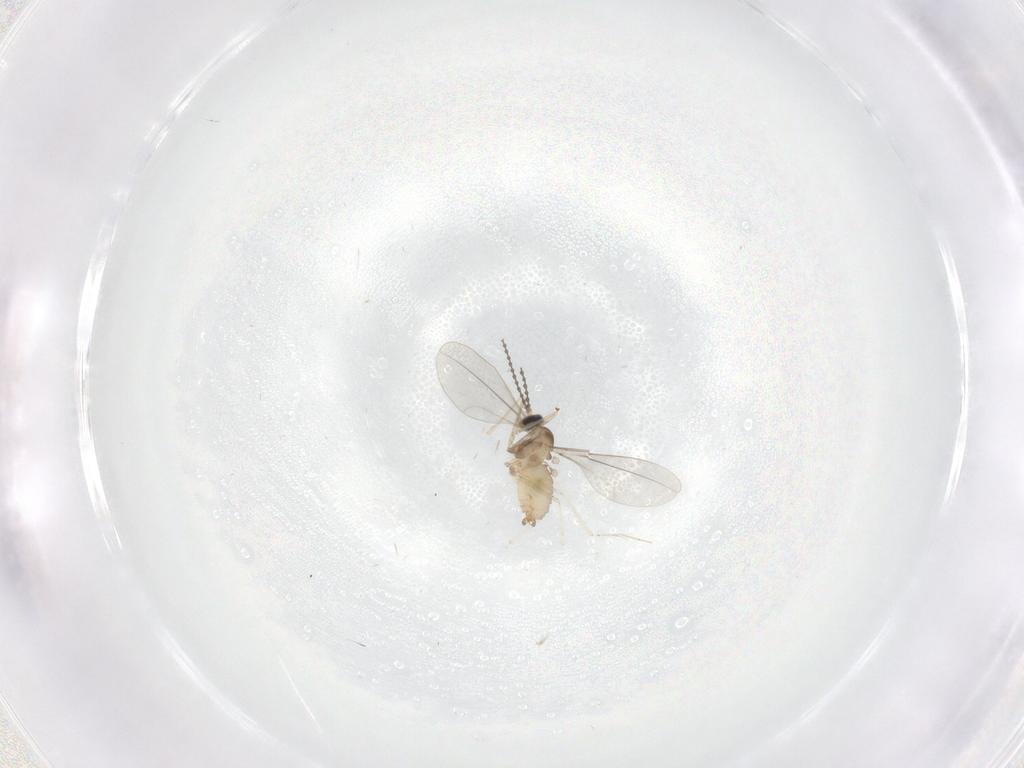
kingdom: Animalia
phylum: Arthropoda
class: Insecta
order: Diptera
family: Cecidomyiidae
